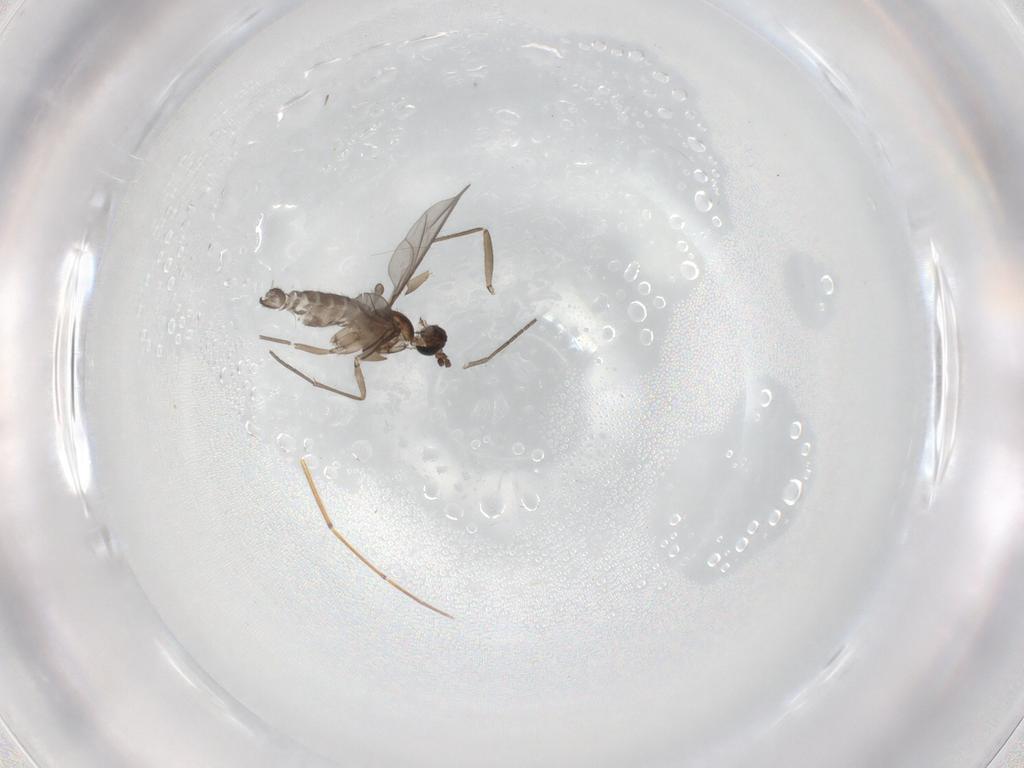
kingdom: Animalia
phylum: Arthropoda
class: Insecta
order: Diptera
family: Sciaridae
